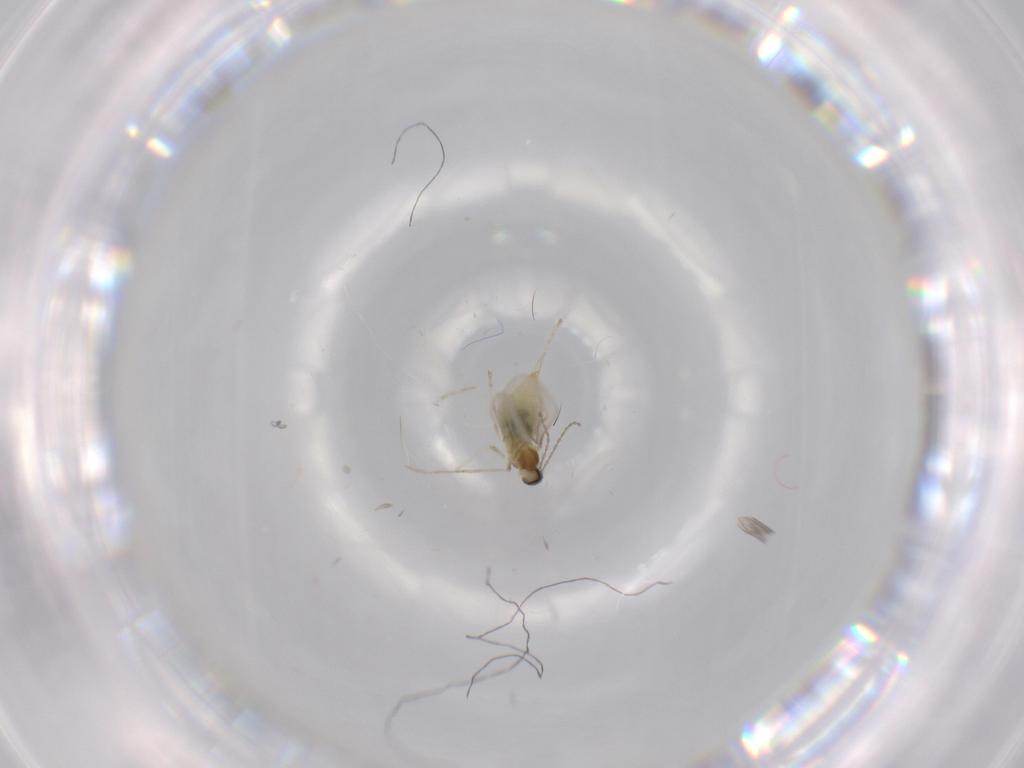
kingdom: Animalia
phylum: Arthropoda
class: Insecta
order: Diptera
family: Cecidomyiidae
